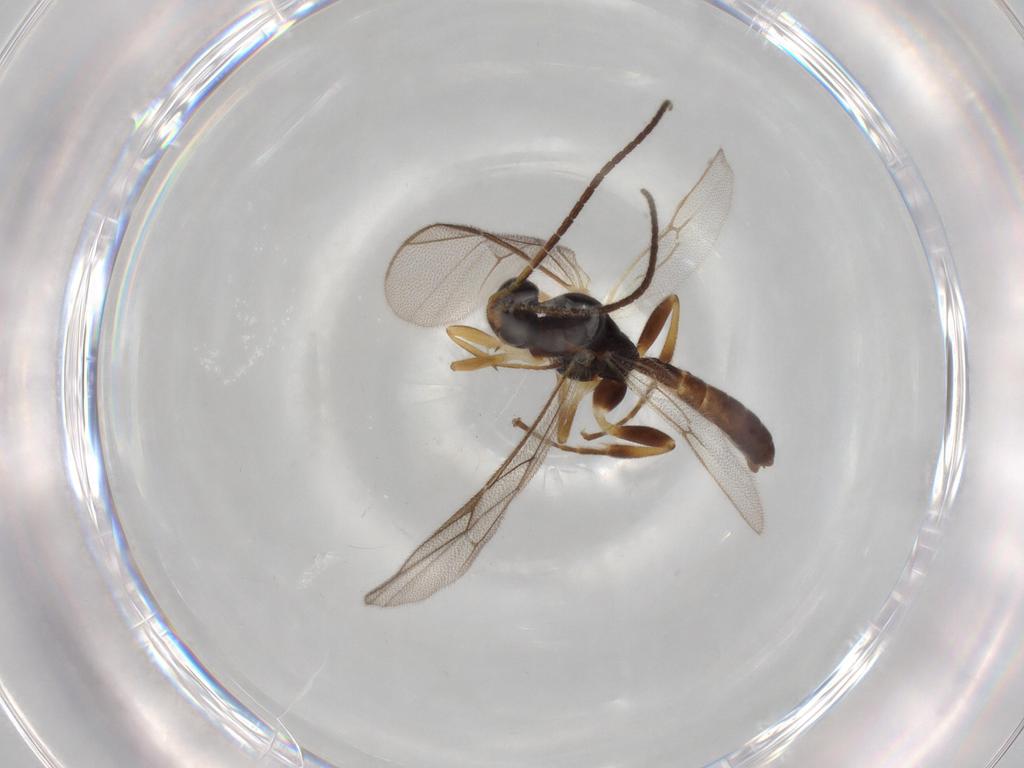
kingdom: Animalia
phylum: Arthropoda
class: Insecta
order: Hymenoptera
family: Ichneumonidae
